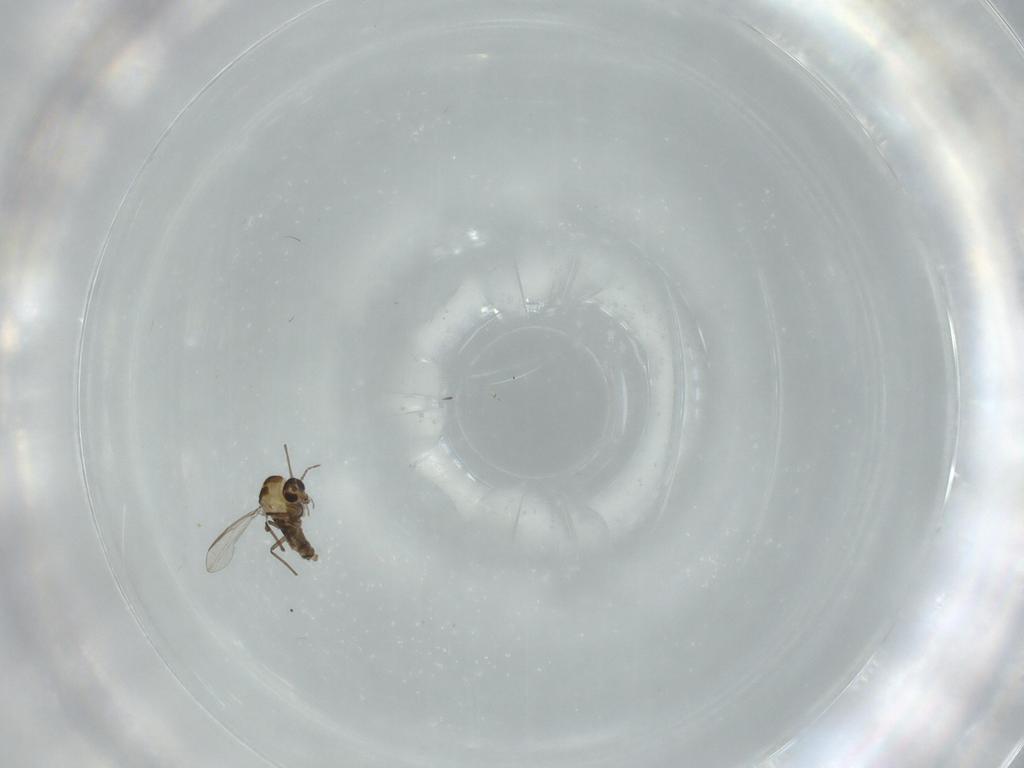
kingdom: Animalia
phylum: Arthropoda
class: Insecta
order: Diptera
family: Chironomidae
